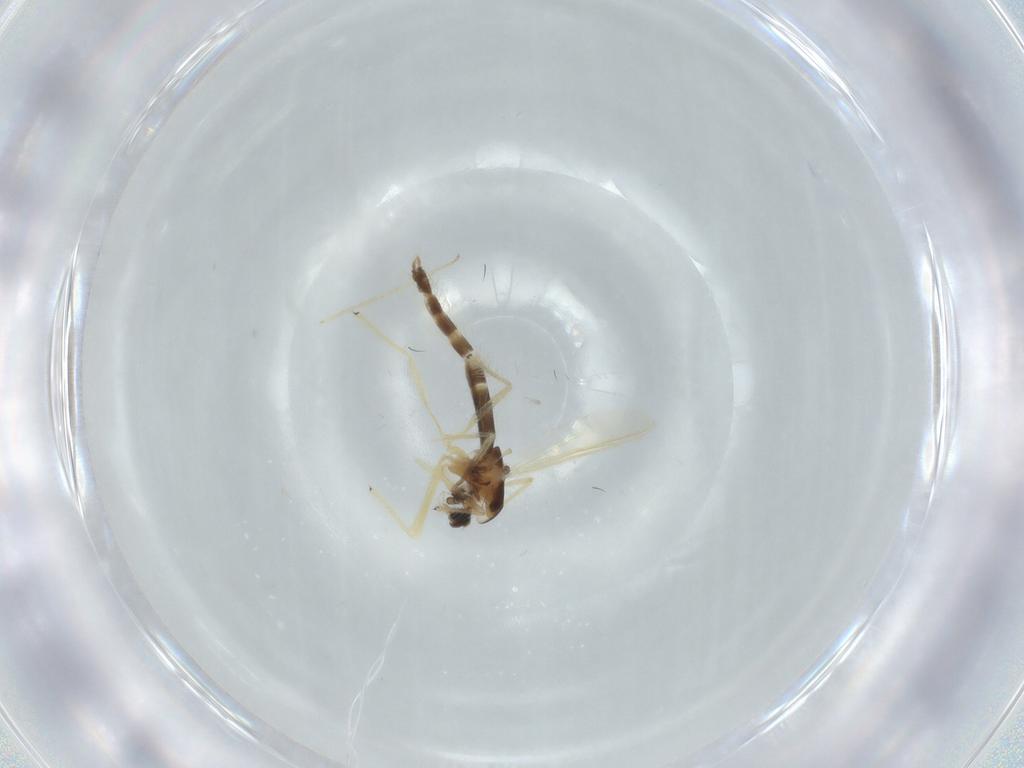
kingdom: Animalia
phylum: Arthropoda
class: Insecta
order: Diptera
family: Chironomidae
